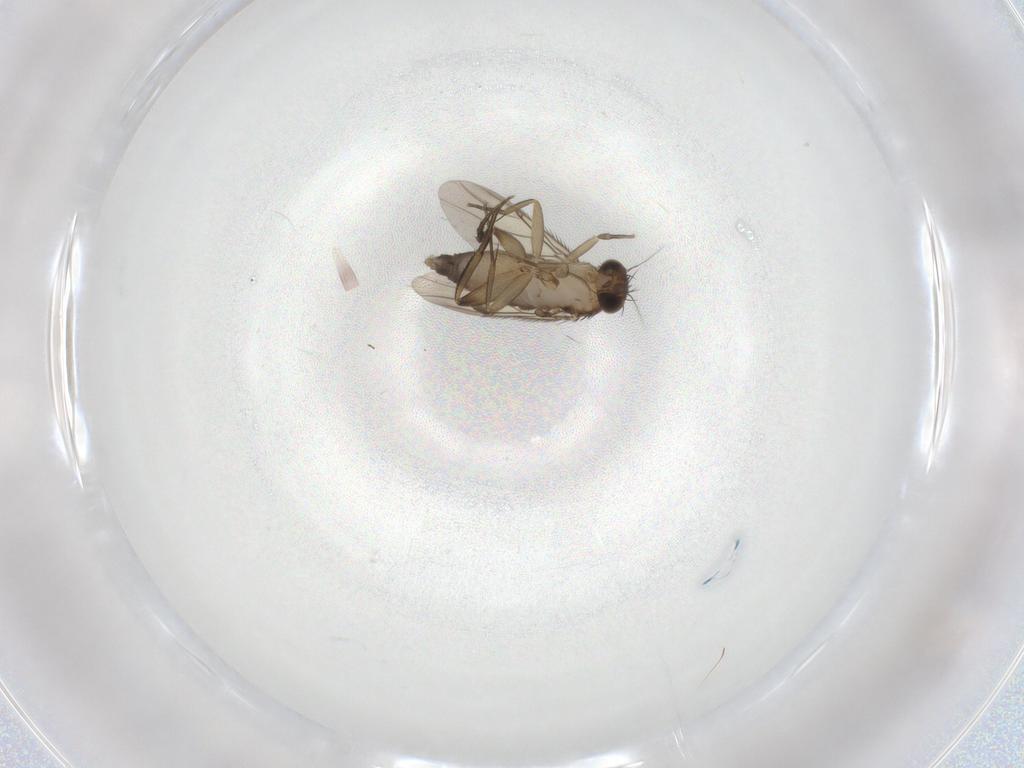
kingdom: Animalia
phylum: Arthropoda
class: Insecta
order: Diptera
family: Phoridae
